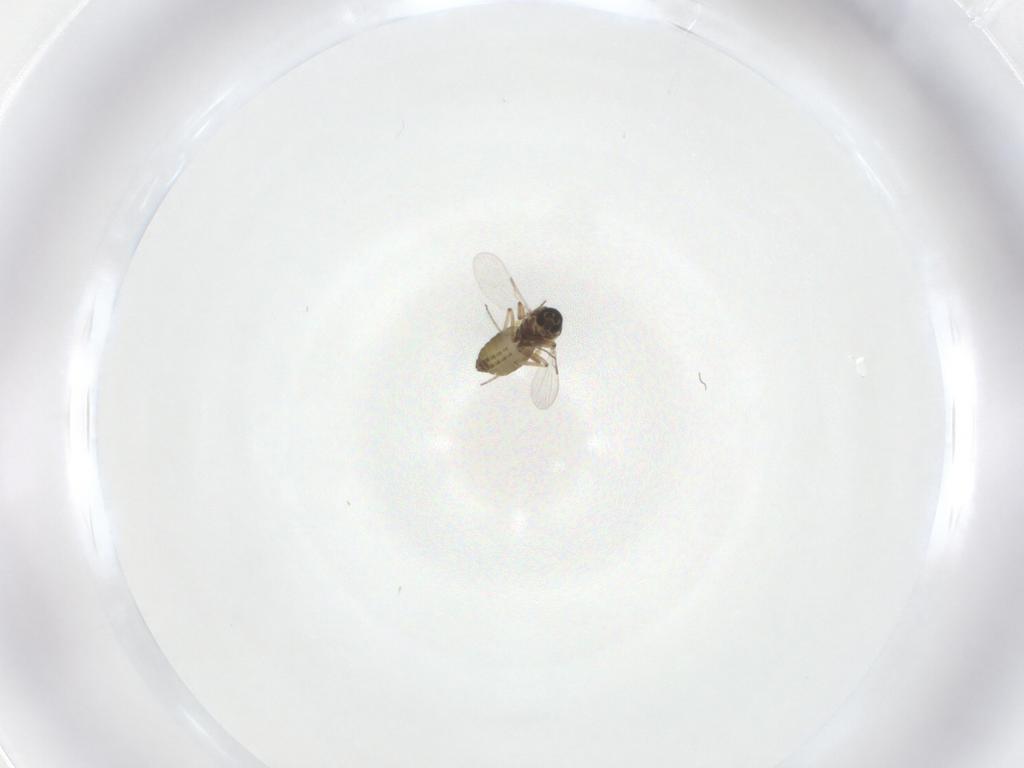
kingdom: Animalia
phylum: Arthropoda
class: Insecta
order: Diptera
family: Ceratopogonidae
